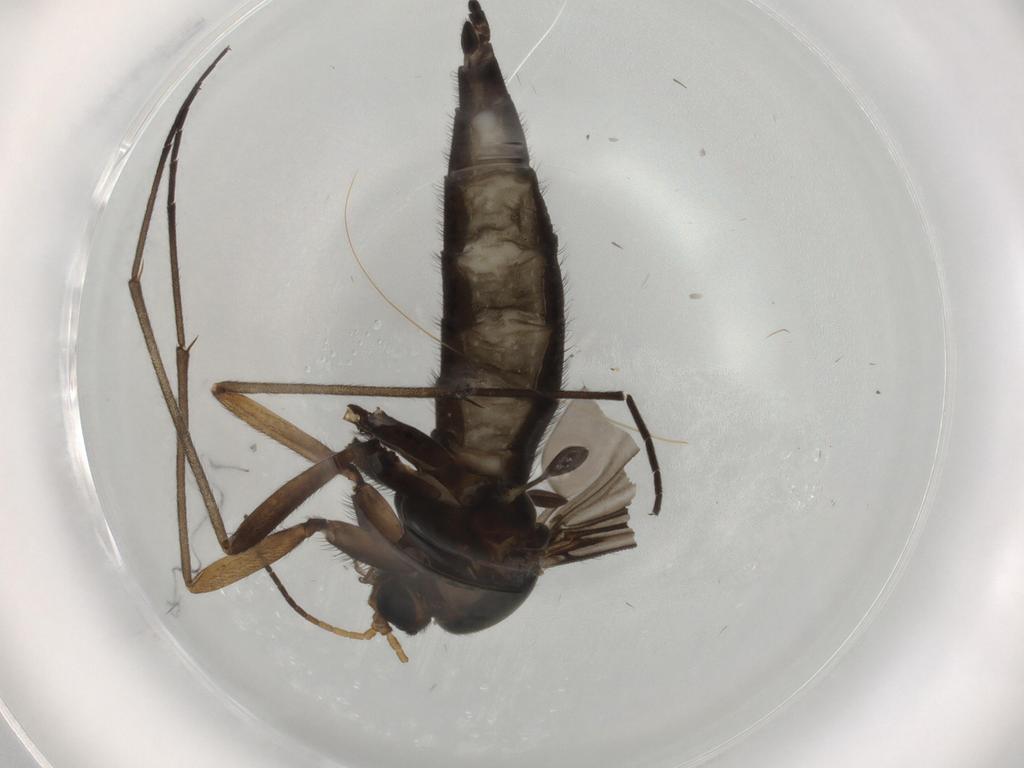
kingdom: Animalia
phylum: Arthropoda
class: Insecta
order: Diptera
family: Sciaridae
